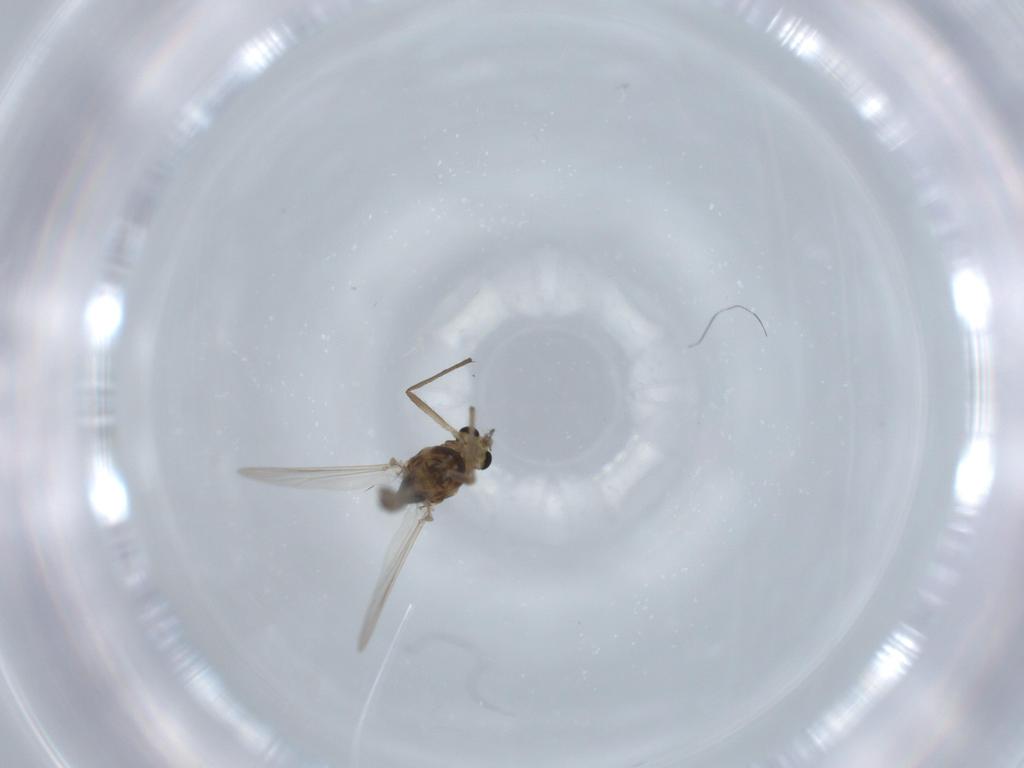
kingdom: Animalia
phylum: Arthropoda
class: Insecta
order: Diptera
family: Chironomidae
